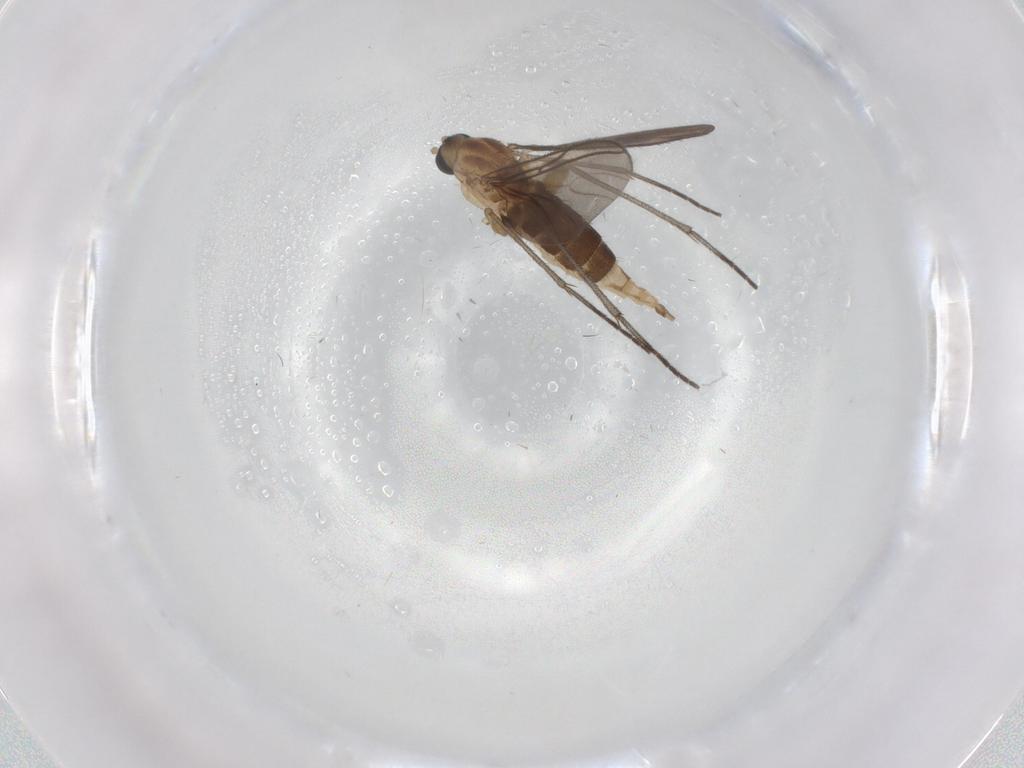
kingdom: Animalia
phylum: Arthropoda
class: Insecta
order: Diptera
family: Sciaridae
